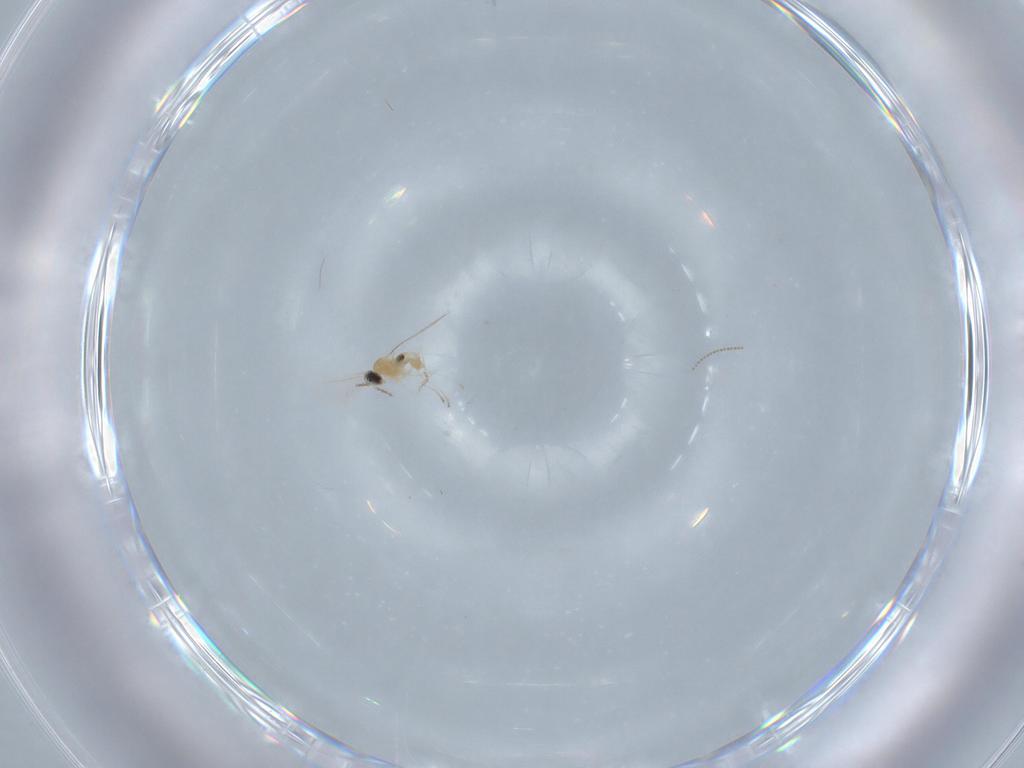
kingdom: Animalia
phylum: Arthropoda
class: Insecta
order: Diptera
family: Cecidomyiidae
